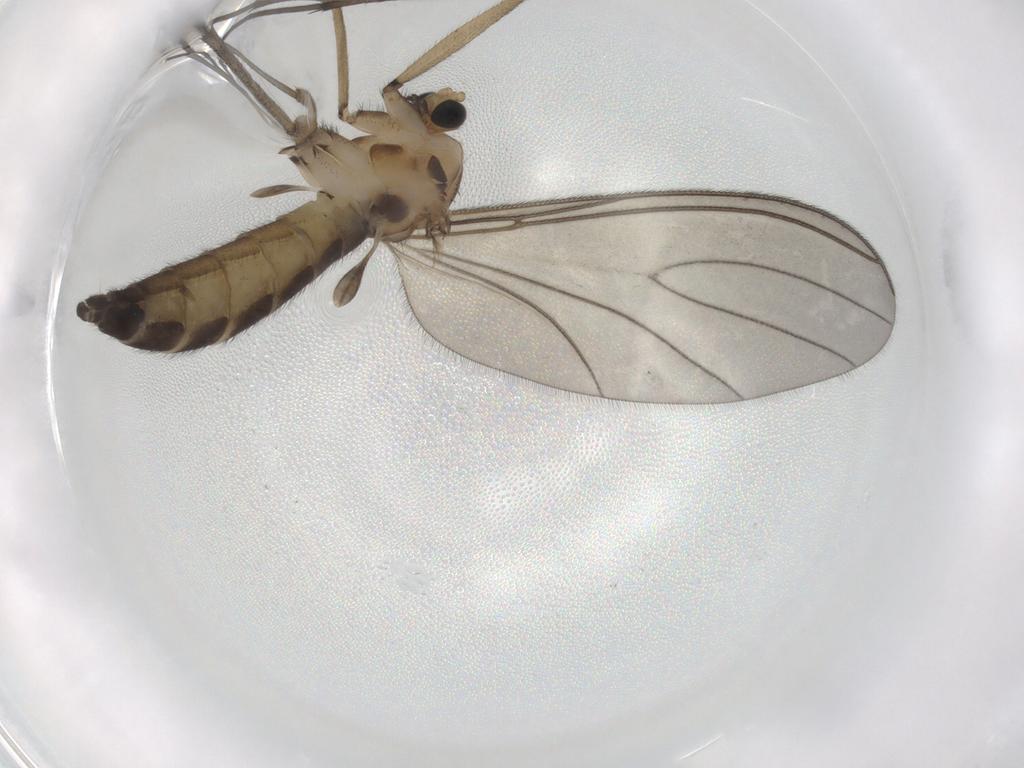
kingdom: Animalia
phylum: Arthropoda
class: Insecta
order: Diptera
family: Sciaridae
